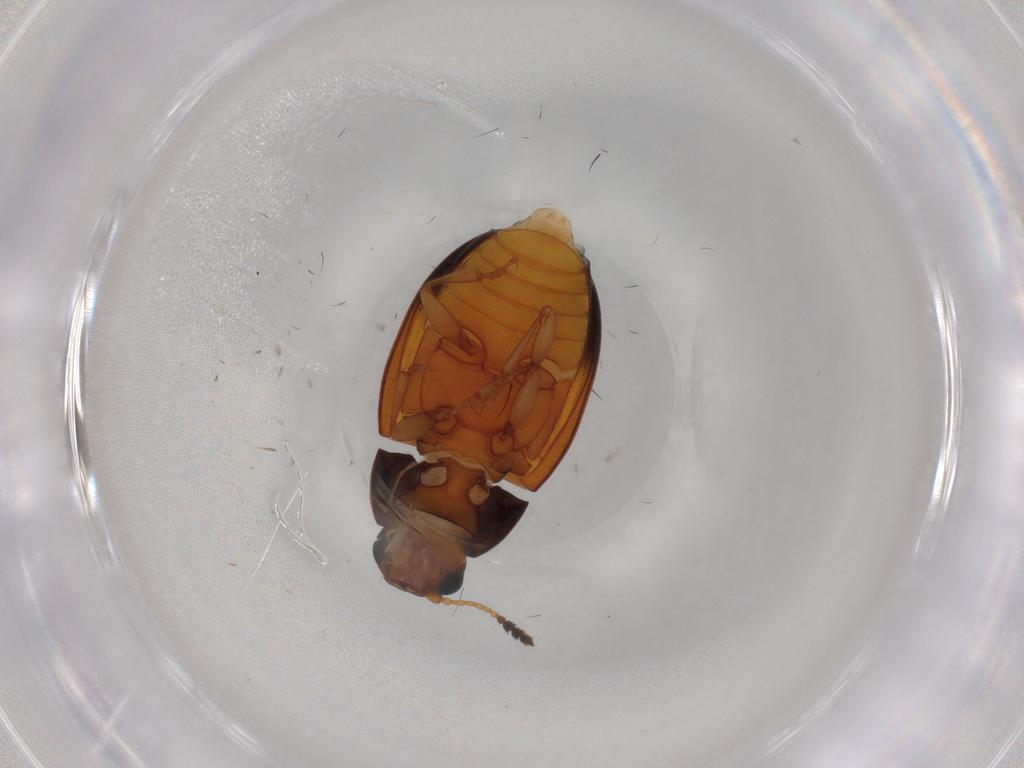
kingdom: Animalia
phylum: Arthropoda
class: Insecta
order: Coleoptera
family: Erotylidae
